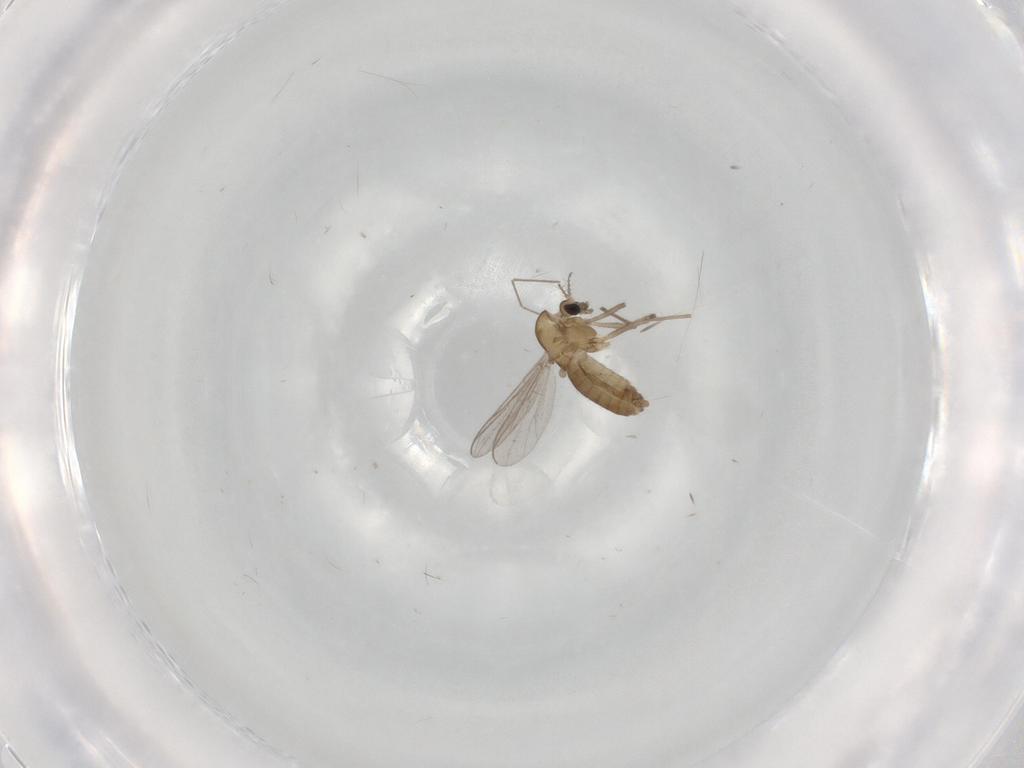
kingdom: Animalia
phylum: Arthropoda
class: Insecta
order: Diptera
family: Chironomidae
